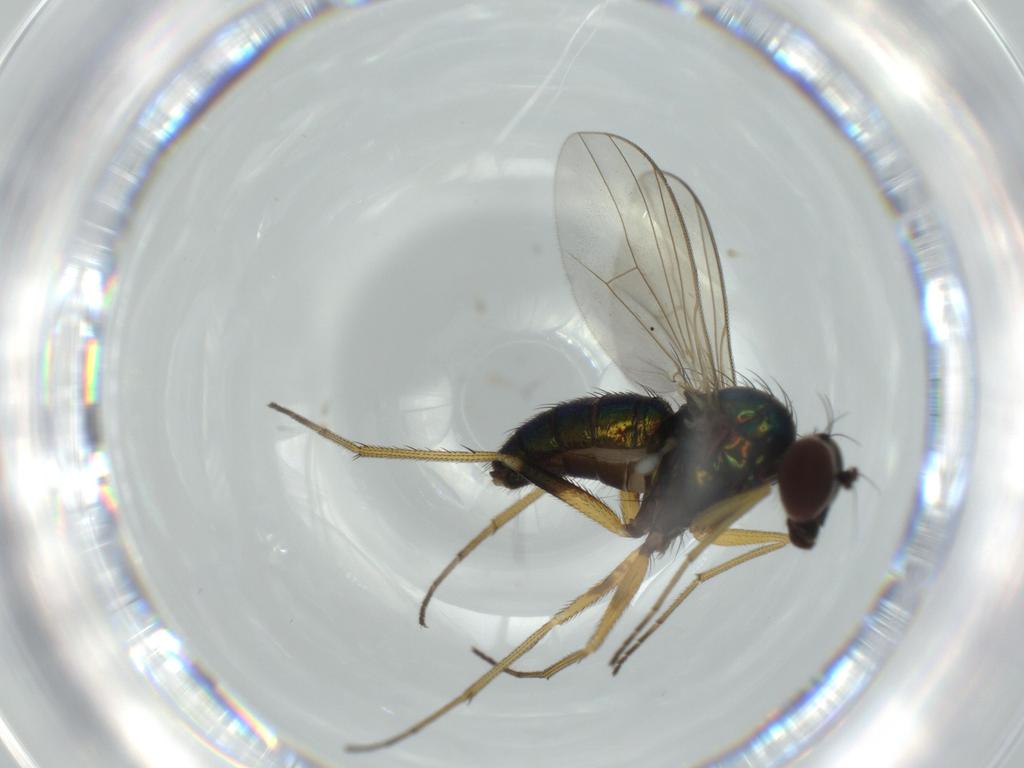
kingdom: Animalia
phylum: Arthropoda
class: Insecta
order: Diptera
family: Dolichopodidae
